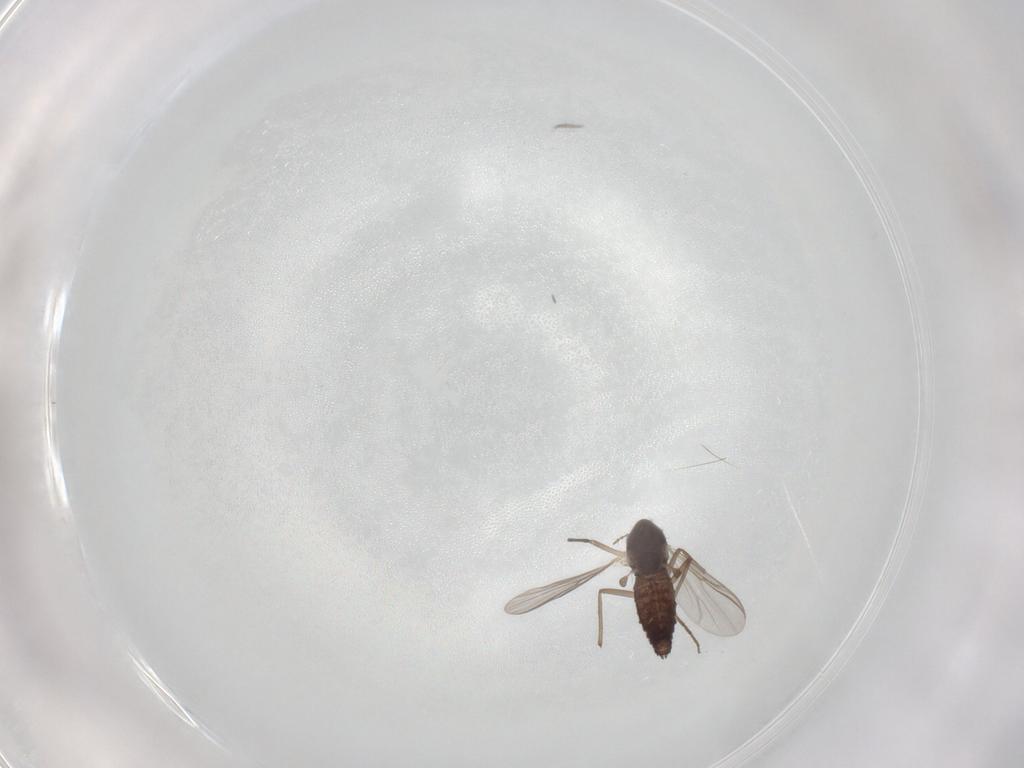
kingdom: Animalia
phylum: Arthropoda
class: Insecta
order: Diptera
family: Chironomidae
